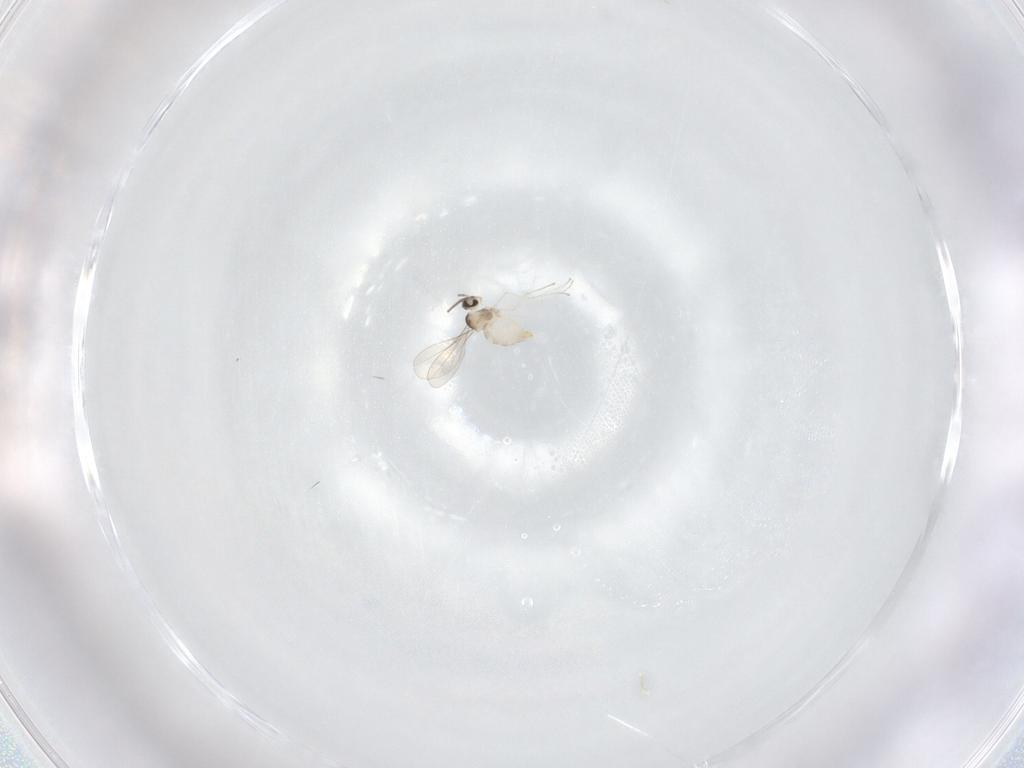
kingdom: Animalia
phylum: Arthropoda
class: Insecta
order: Diptera
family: Cecidomyiidae
